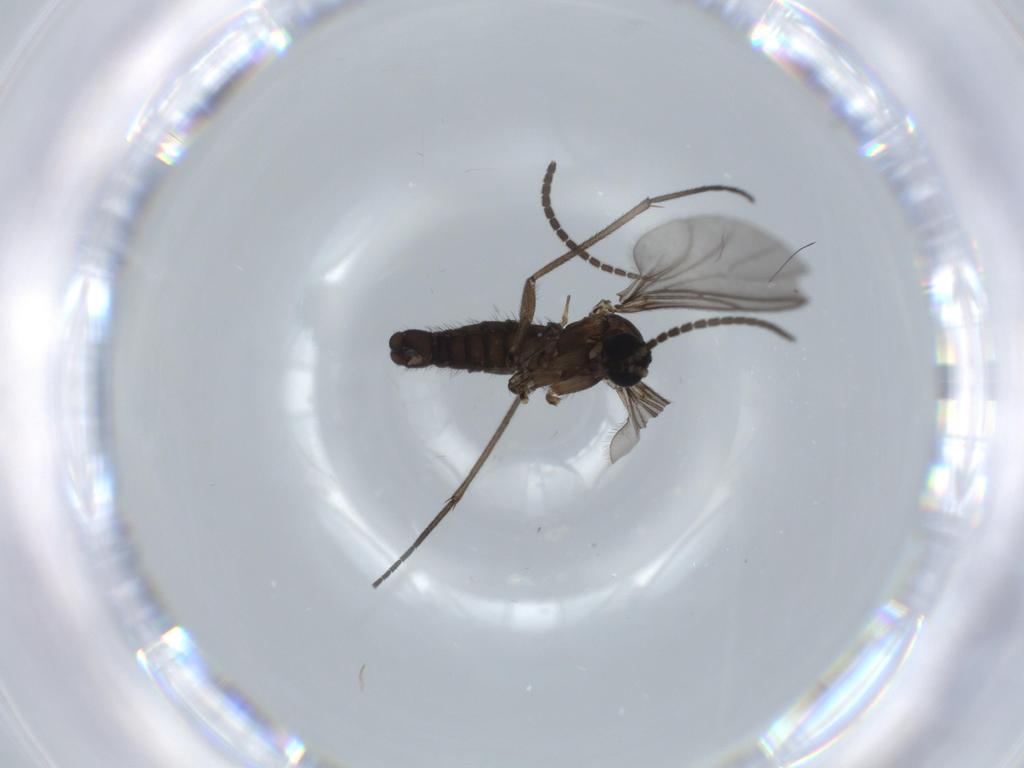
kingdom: Animalia
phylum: Arthropoda
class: Insecta
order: Diptera
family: Sciaridae
